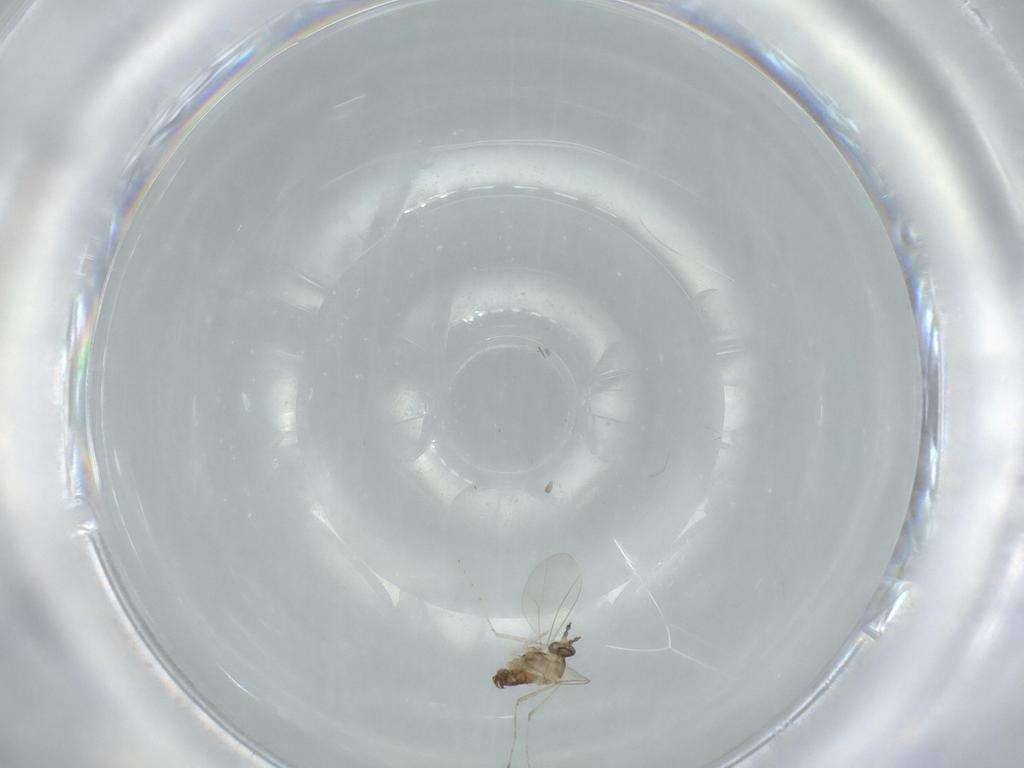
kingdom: Animalia
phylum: Arthropoda
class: Insecta
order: Diptera
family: Cecidomyiidae
